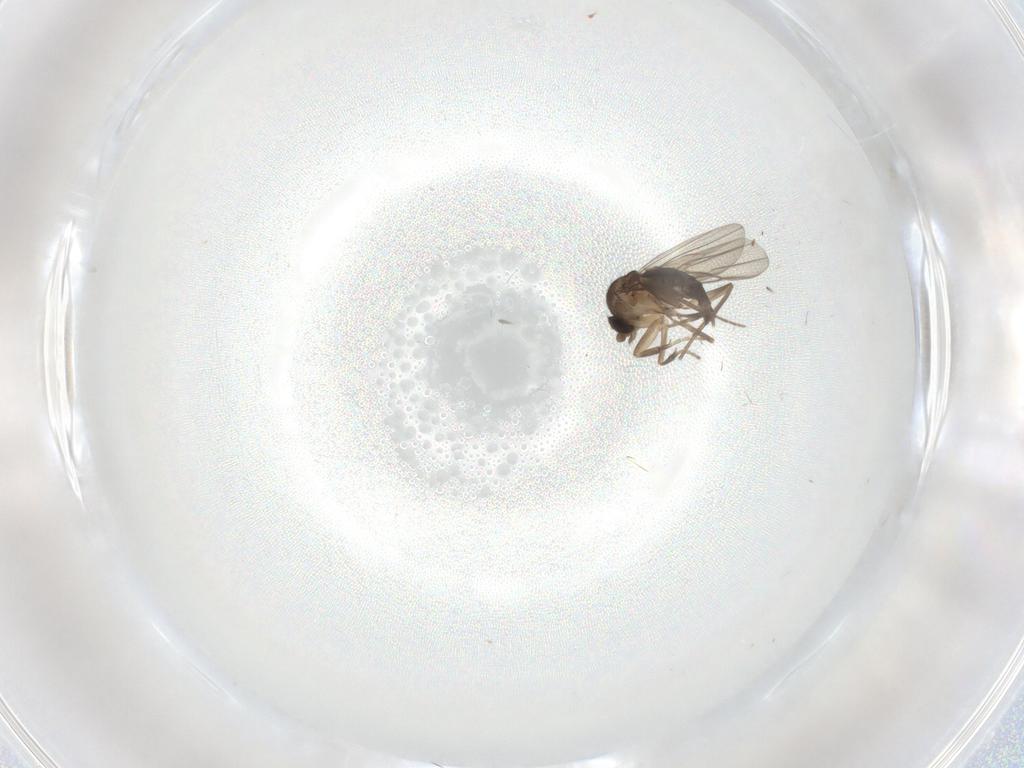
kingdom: Animalia
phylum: Arthropoda
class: Insecta
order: Diptera
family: Phoridae
